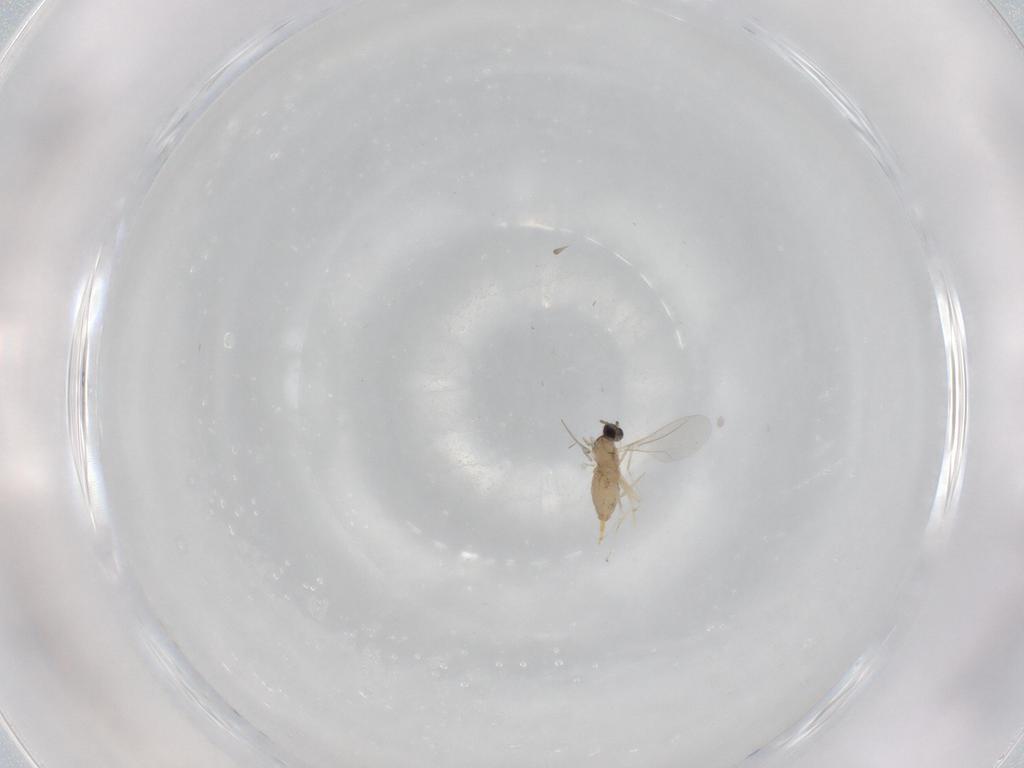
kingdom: Animalia
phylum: Arthropoda
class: Insecta
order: Diptera
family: Cecidomyiidae
